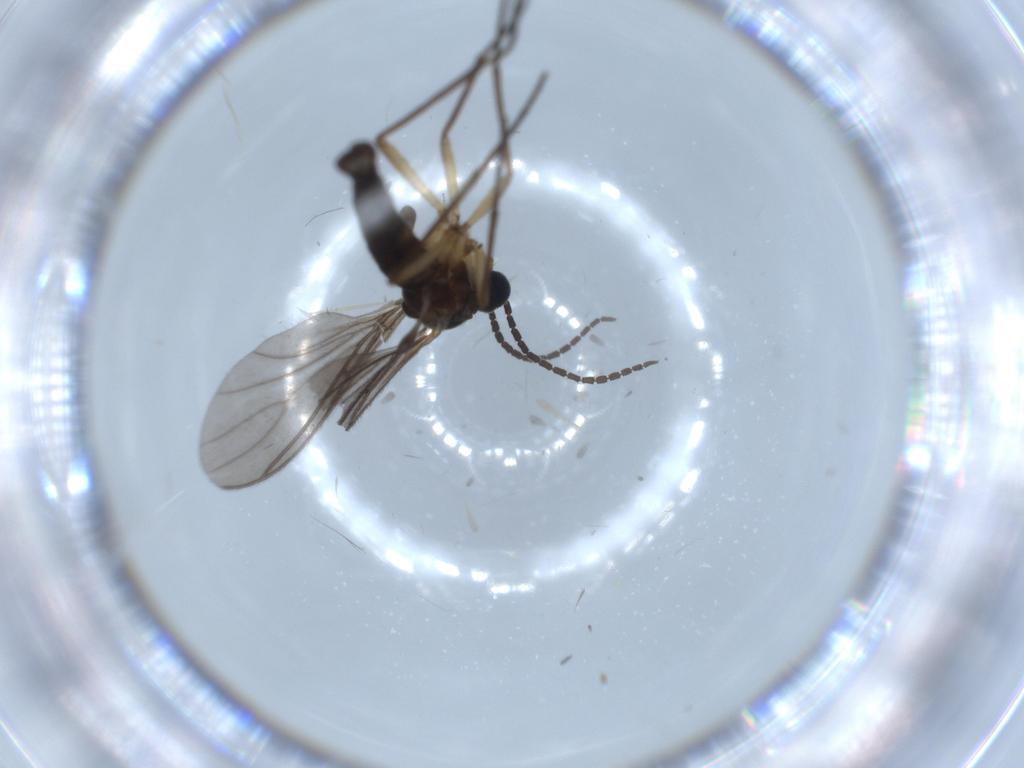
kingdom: Animalia
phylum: Arthropoda
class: Insecta
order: Diptera
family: Sciaridae
